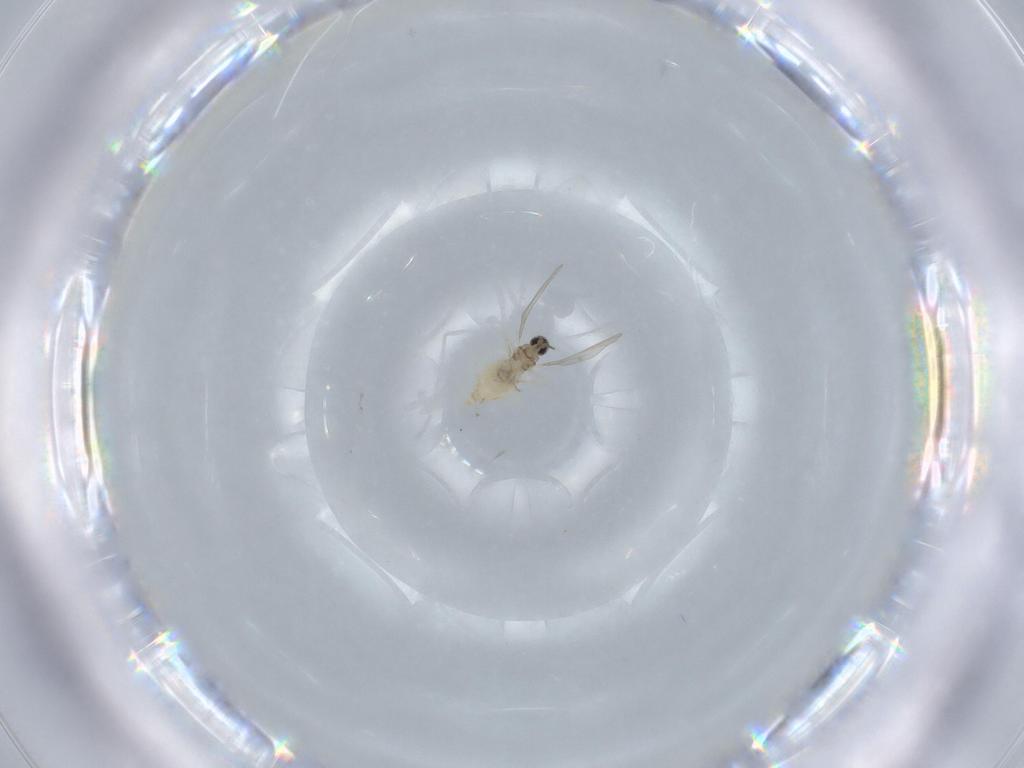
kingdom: Animalia
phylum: Arthropoda
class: Insecta
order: Diptera
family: Cecidomyiidae
